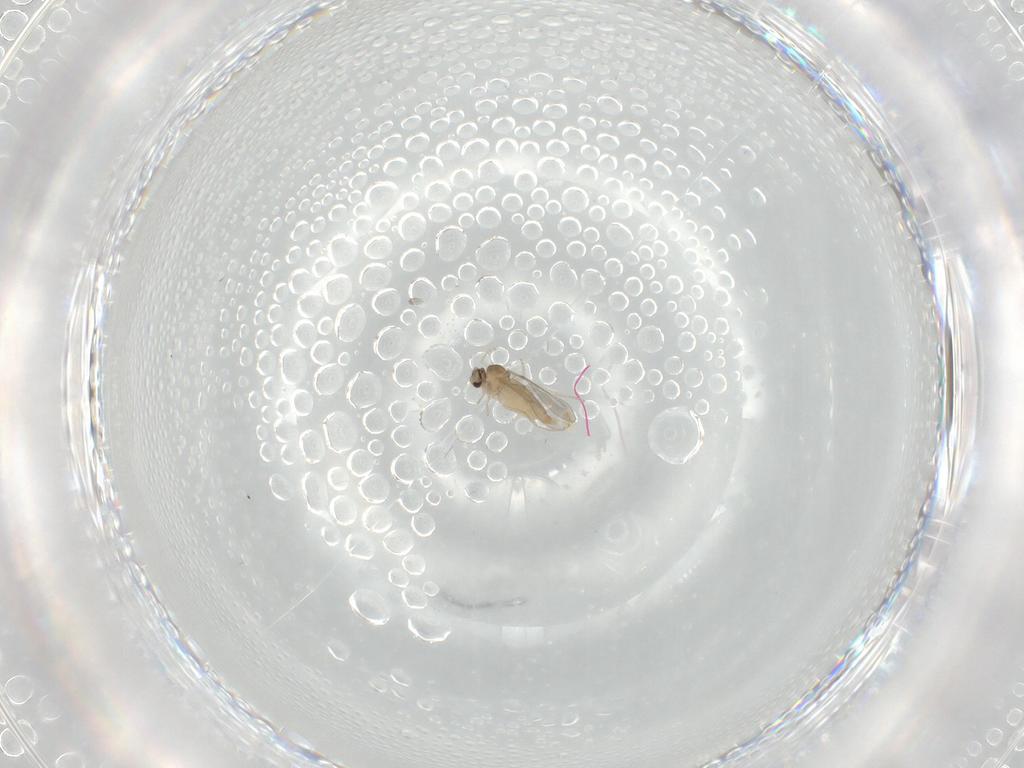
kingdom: Animalia
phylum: Arthropoda
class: Insecta
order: Diptera
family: Cecidomyiidae
